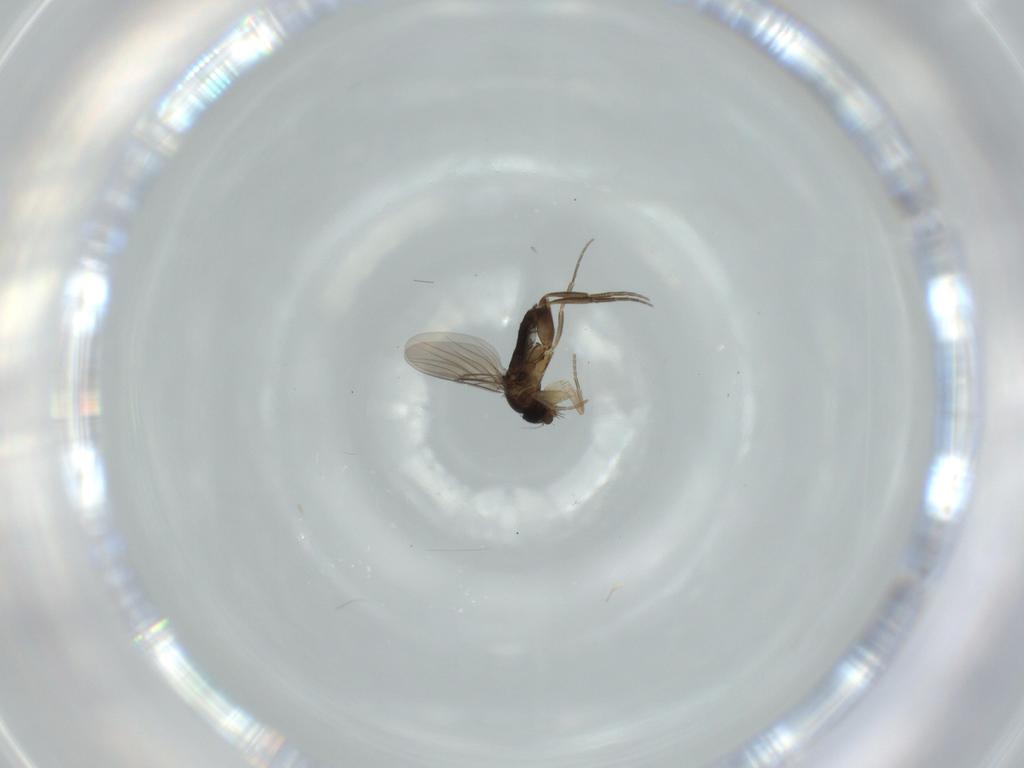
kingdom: Animalia
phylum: Arthropoda
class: Insecta
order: Diptera
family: Phoridae
